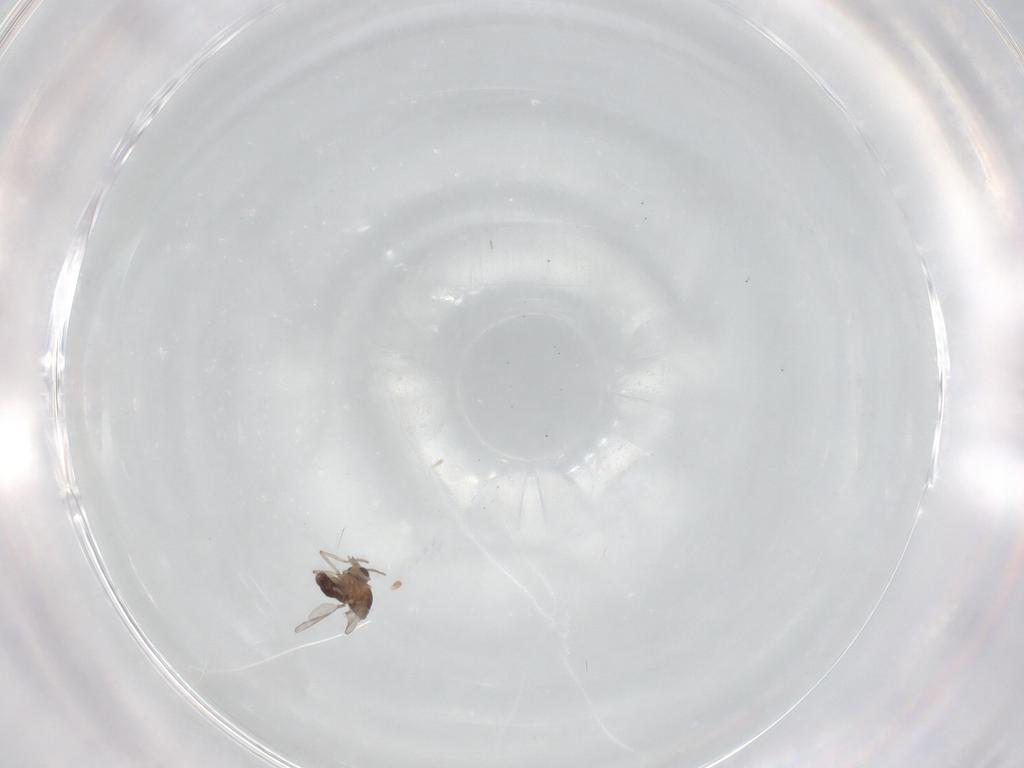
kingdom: Animalia
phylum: Arthropoda
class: Insecta
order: Diptera
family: Ceratopogonidae
